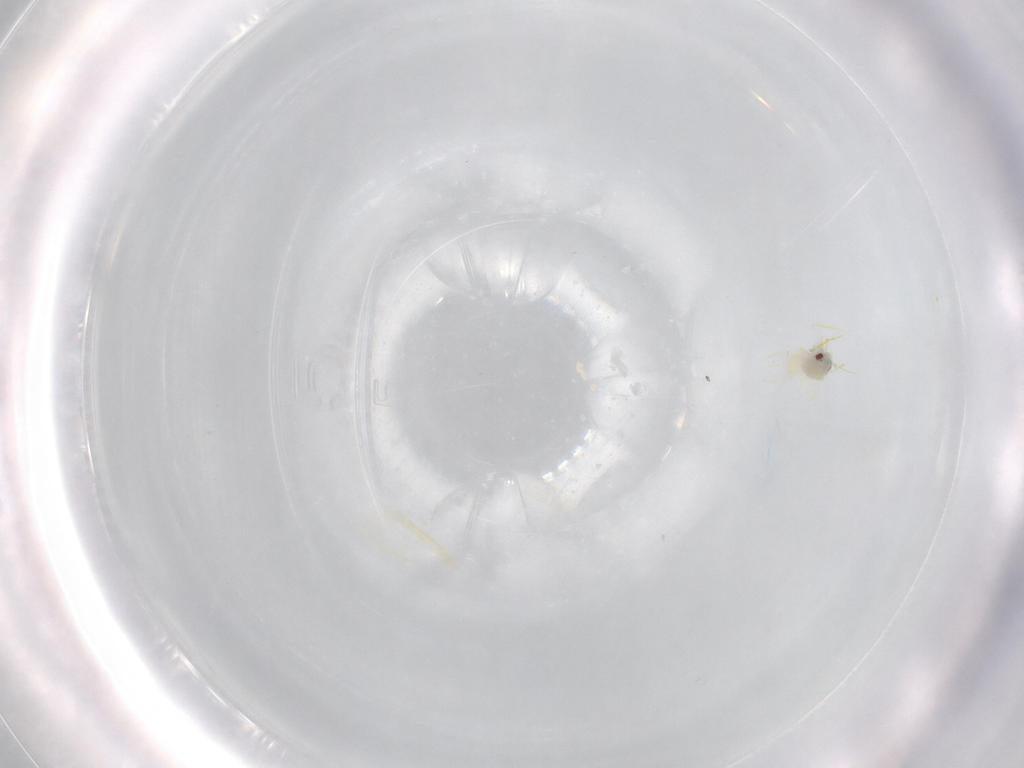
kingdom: Animalia
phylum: Arthropoda
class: Insecta
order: Hemiptera
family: Aleyrodidae
